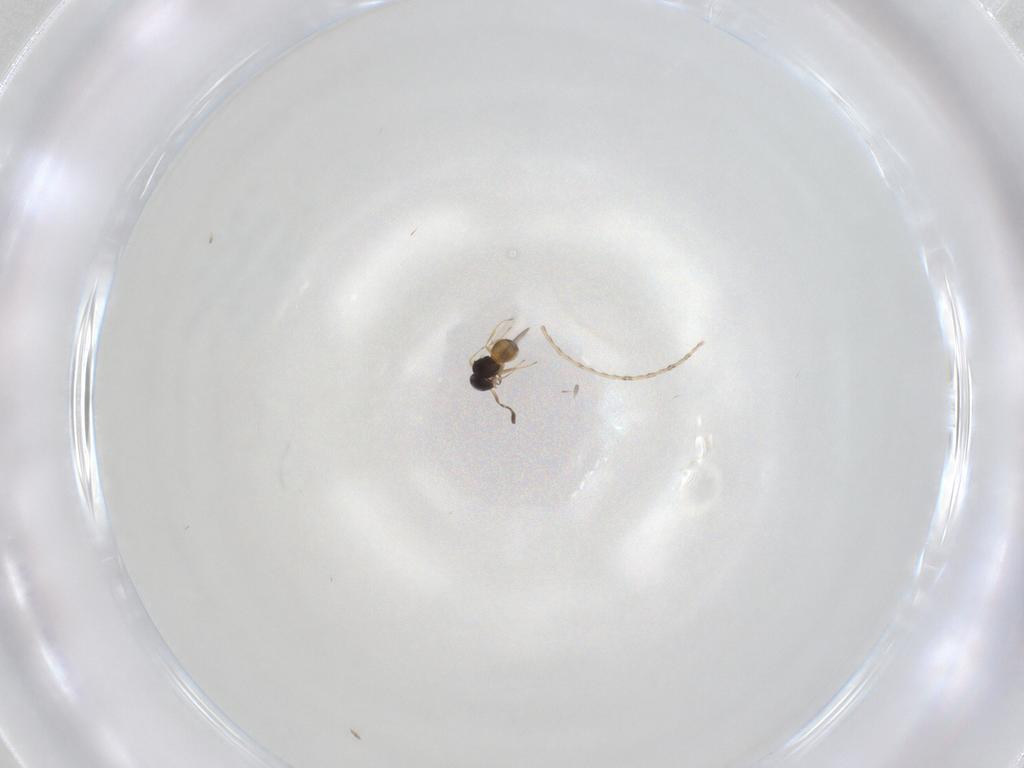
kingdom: Animalia
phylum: Arthropoda
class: Insecta
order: Hymenoptera
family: Scelionidae
